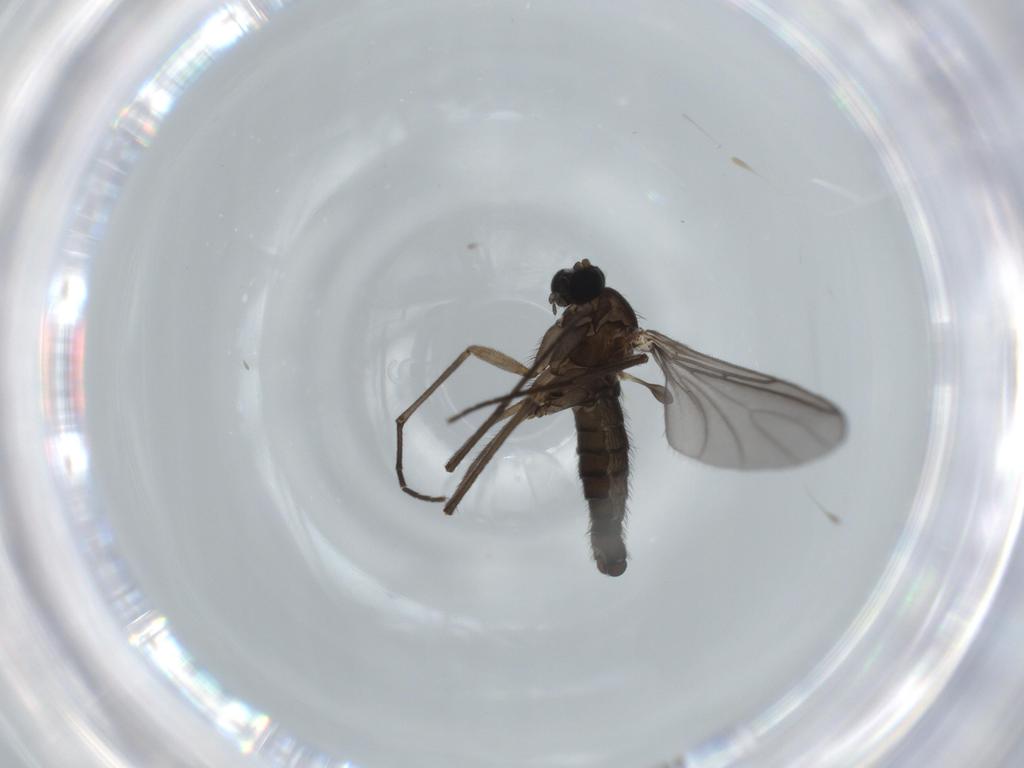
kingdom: Animalia
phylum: Arthropoda
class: Insecta
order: Diptera
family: Sciaridae
